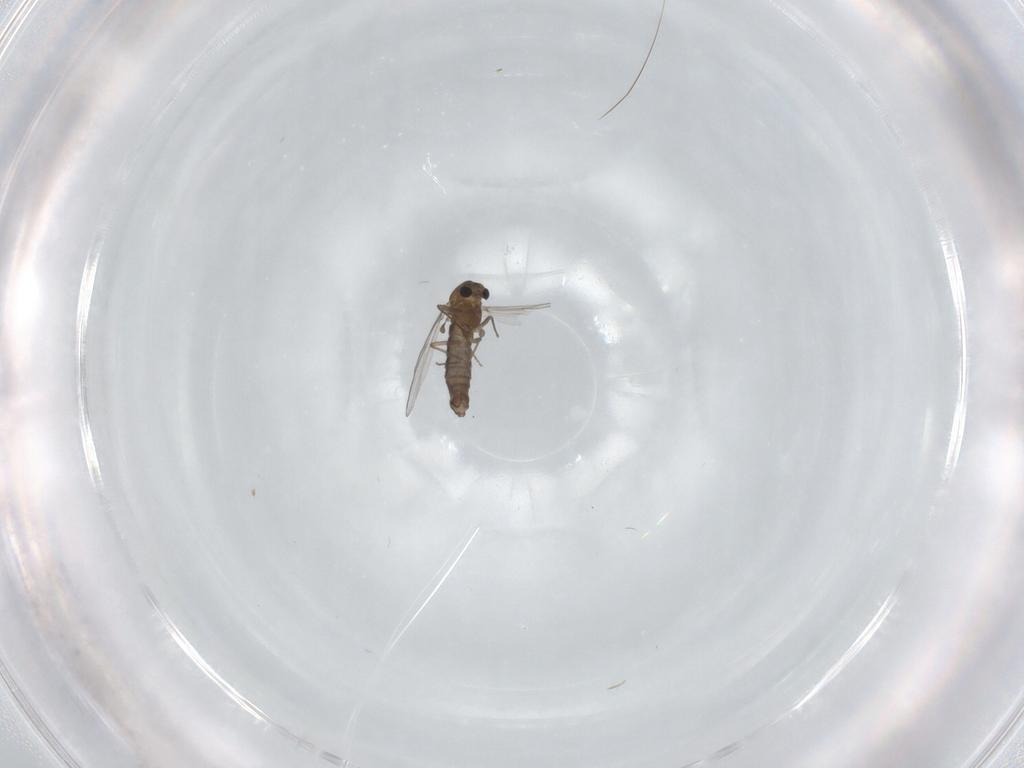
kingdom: Animalia
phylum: Arthropoda
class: Insecta
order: Diptera
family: Chironomidae
